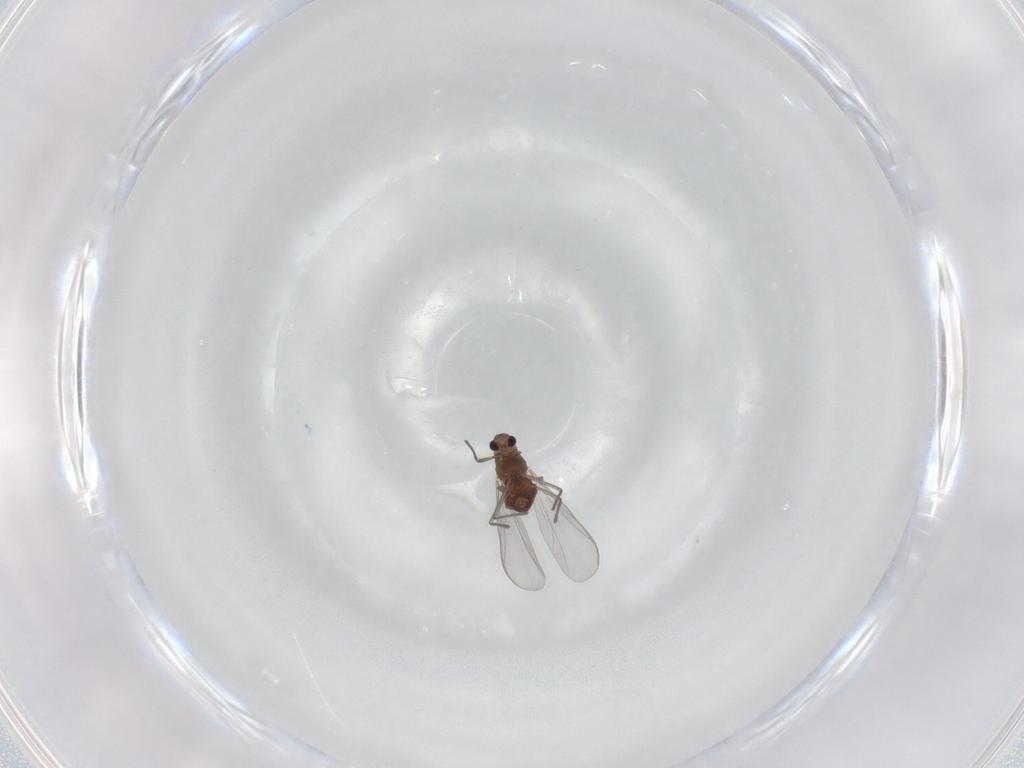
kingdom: Animalia
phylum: Arthropoda
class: Insecta
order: Diptera
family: Chironomidae
